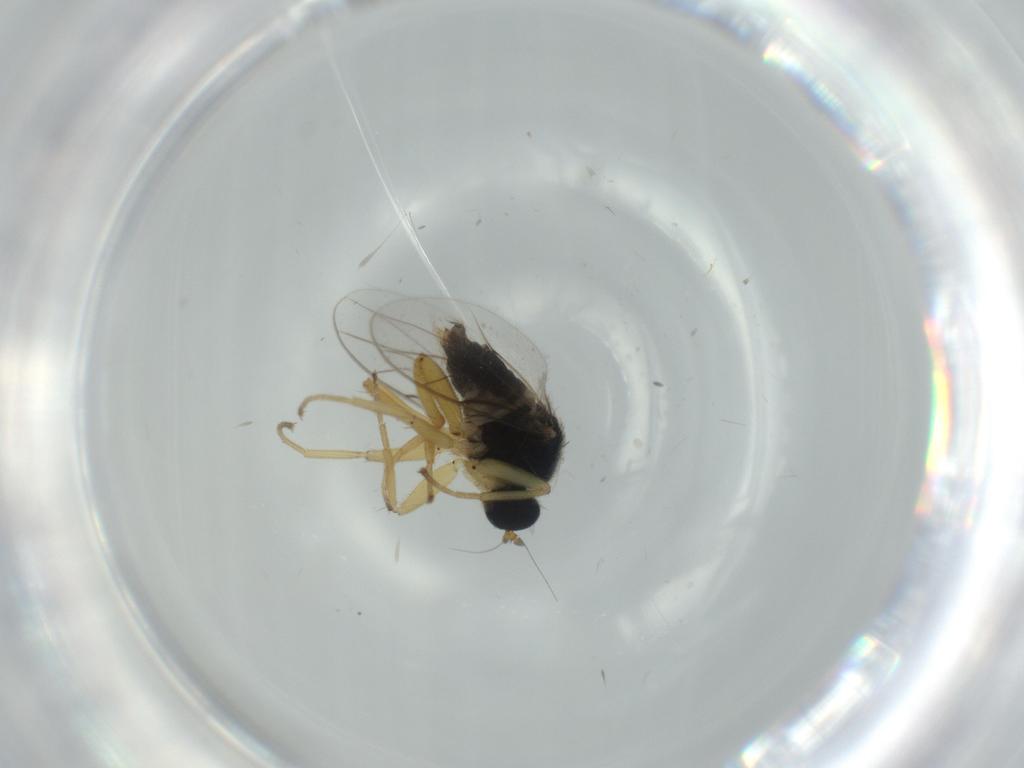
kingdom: Animalia
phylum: Arthropoda
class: Insecta
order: Diptera
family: Hybotidae
